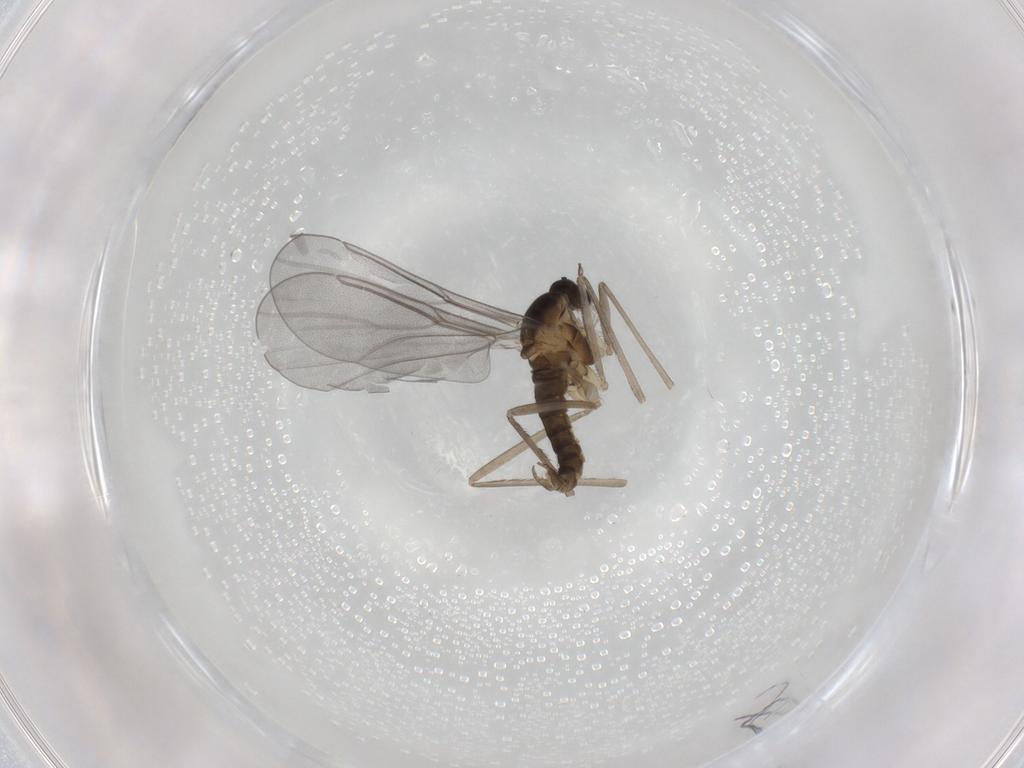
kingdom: Animalia
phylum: Arthropoda
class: Insecta
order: Diptera
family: Cecidomyiidae
